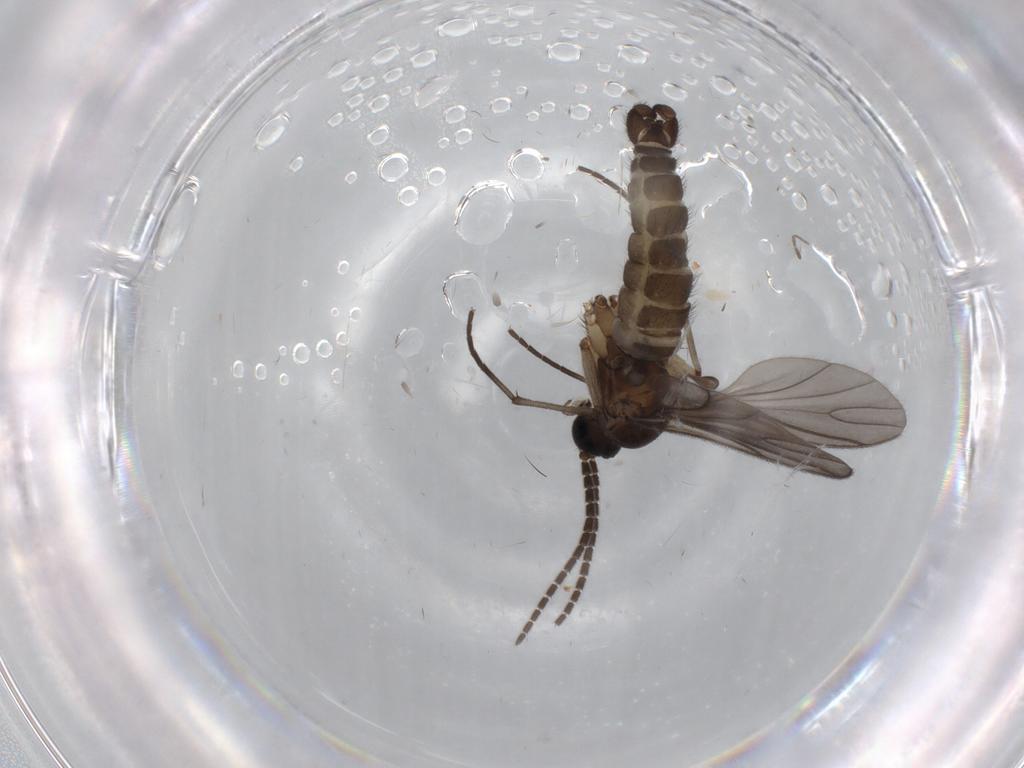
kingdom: Animalia
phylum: Arthropoda
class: Insecta
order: Diptera
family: Sciaridae
